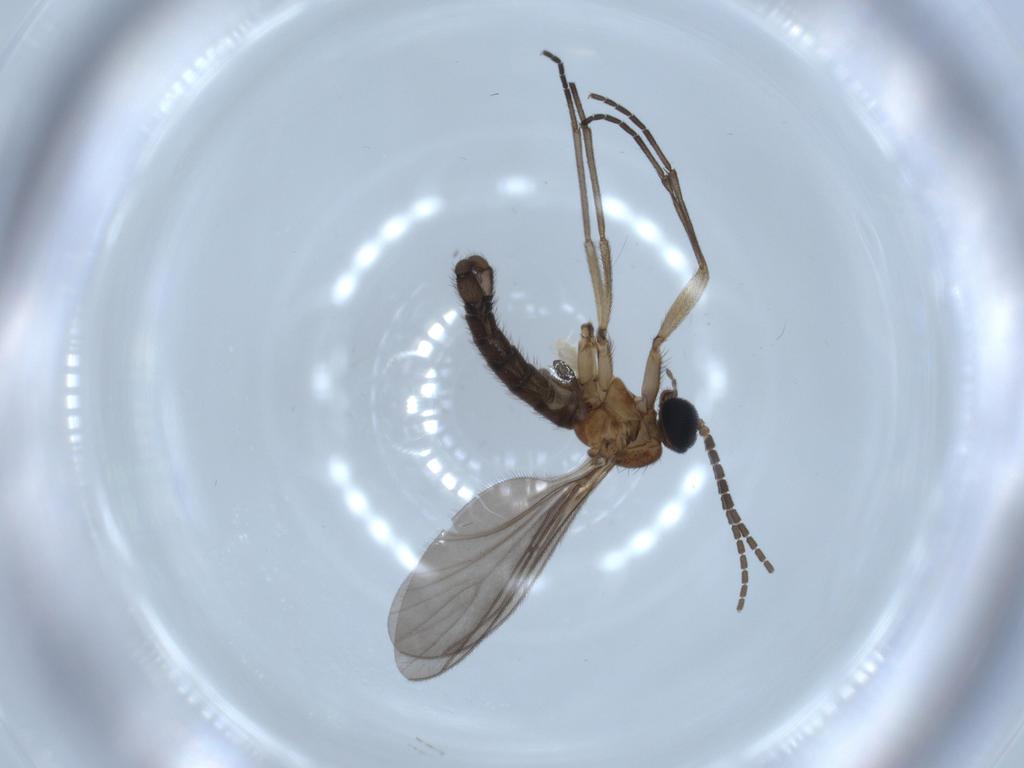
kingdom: Animalia
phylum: Arthropoda
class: Insecta
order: Diptera
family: Sciaridae
